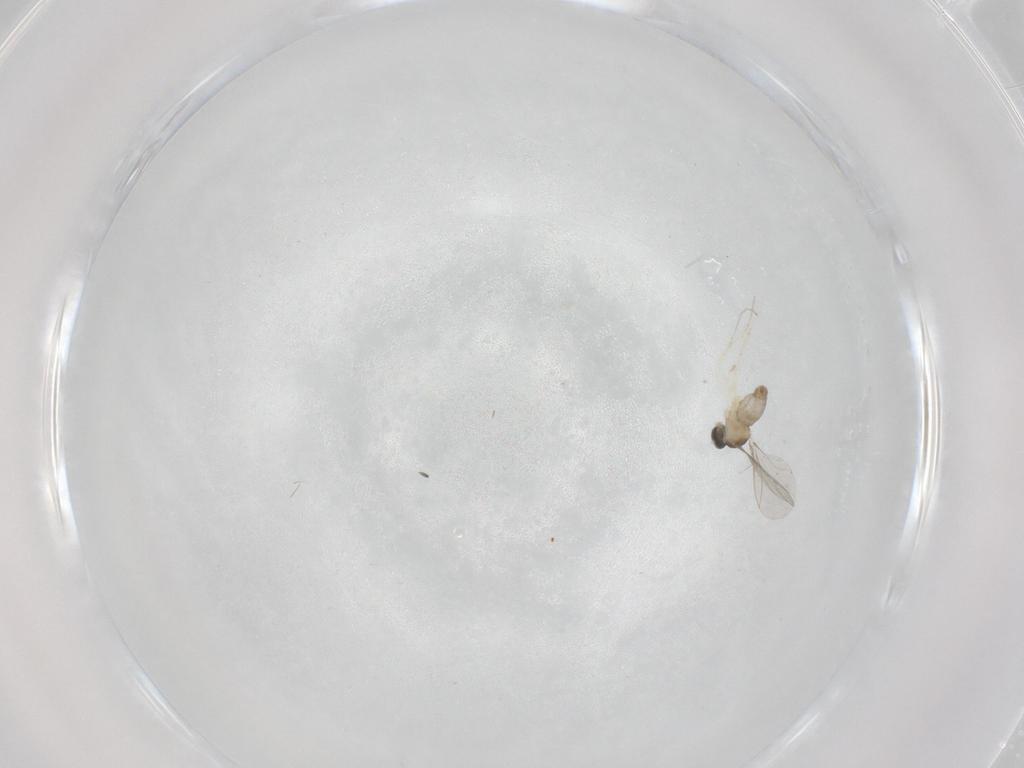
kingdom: Animalia
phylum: Arthropoda
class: Insecta
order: Diptera
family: Cecidomyiidae
